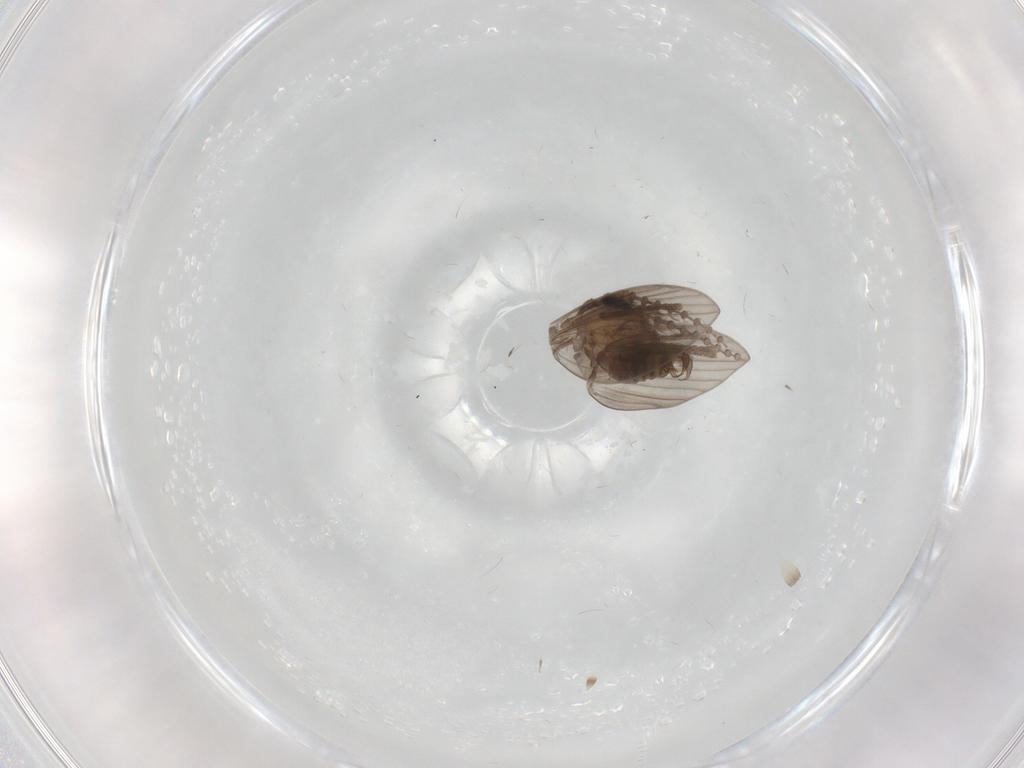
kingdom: Animalia
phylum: Arthropoda
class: Insecta
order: Diptera
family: Psychodidae
